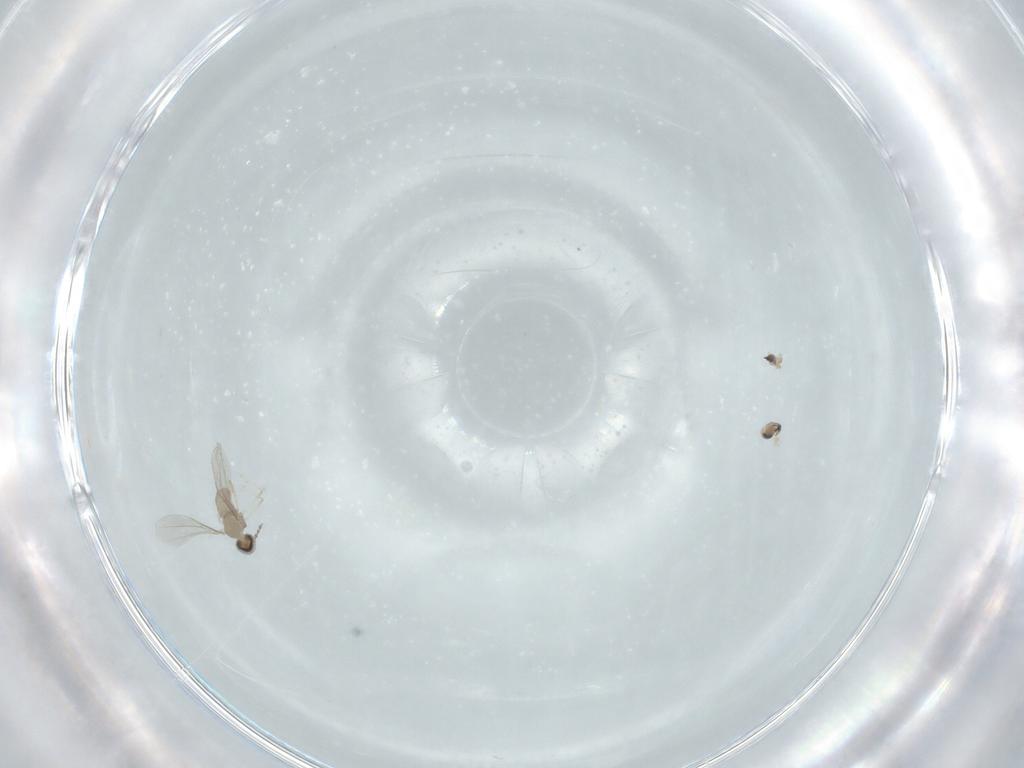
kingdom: Animalia
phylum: Arthropoda
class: Insecta
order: Diptera
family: Cecidomyiidae
